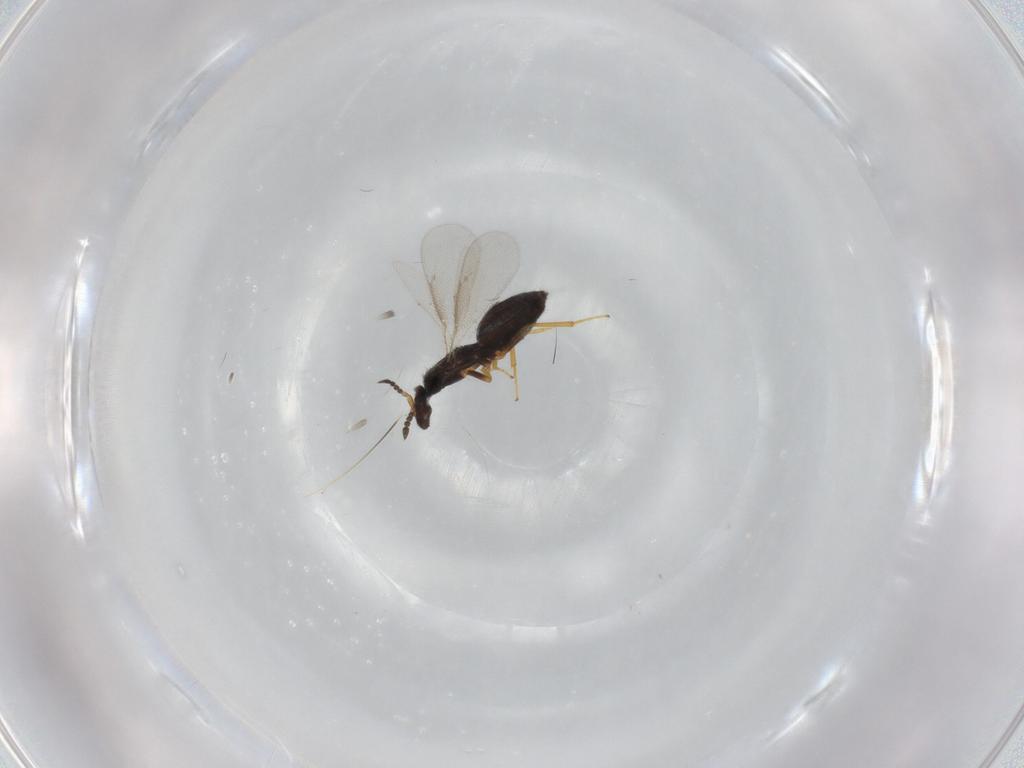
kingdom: Animalia
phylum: Arthropoda
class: Insecta
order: Hymenoptera
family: Eulophidae
